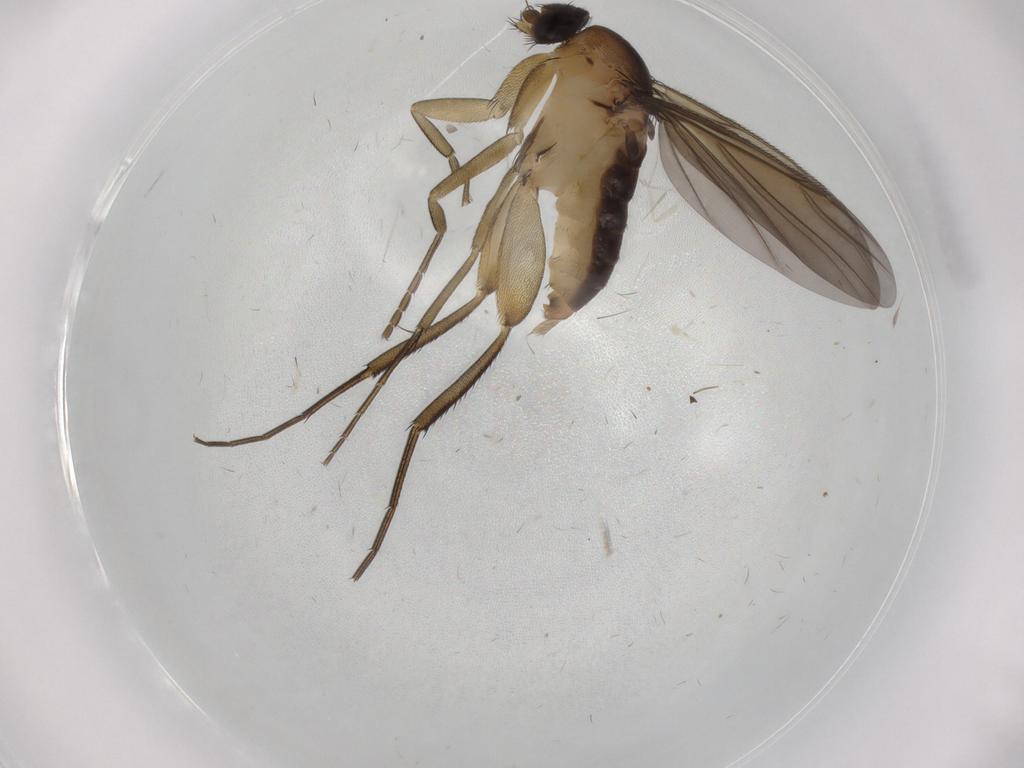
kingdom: Animalia
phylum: Arthropoda
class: Insecta
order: Diptera
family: Phoridae
